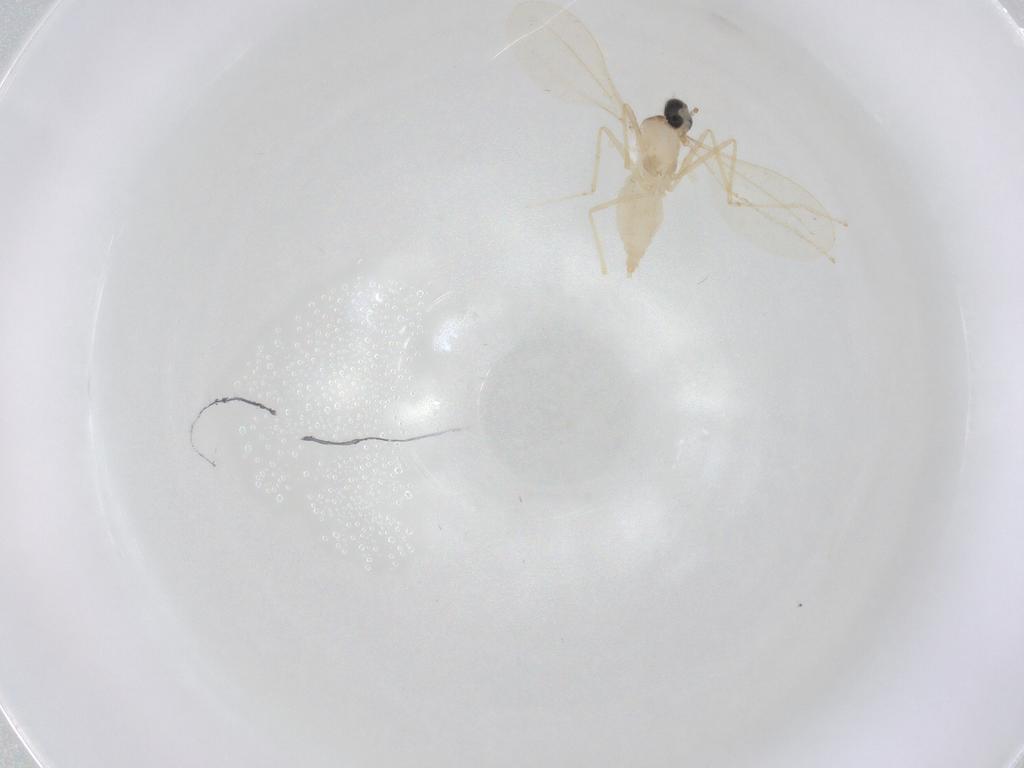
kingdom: Animalia
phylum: Arthropoda
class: Insecta
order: Diptera
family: Cecidomyiidae
